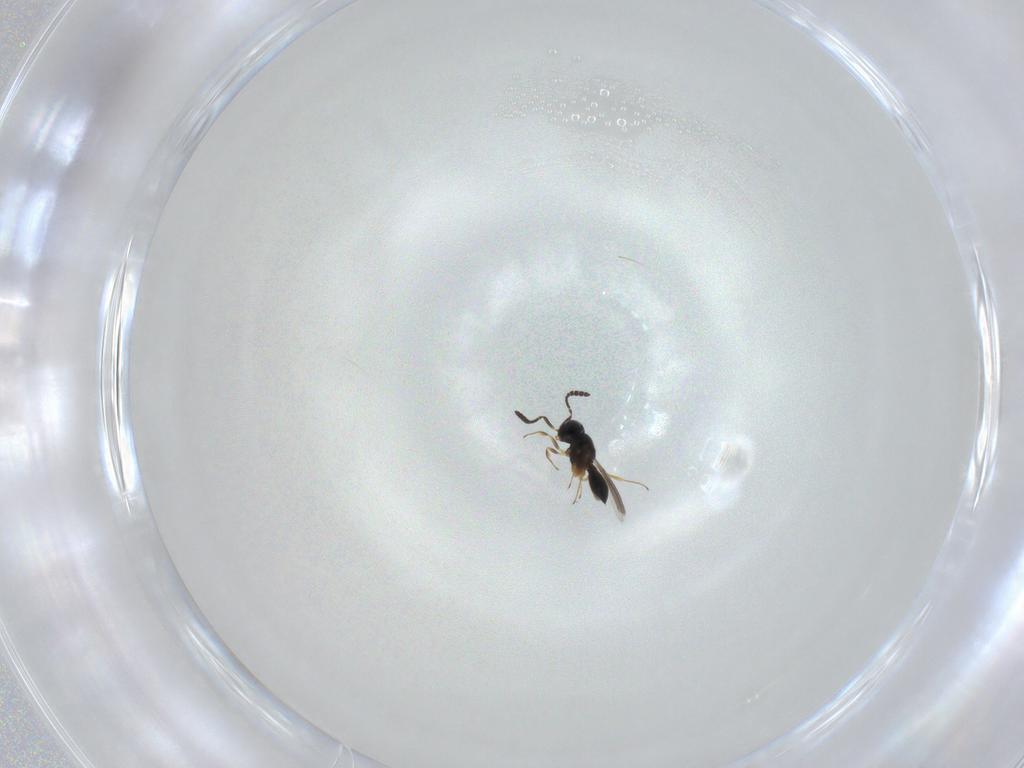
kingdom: Animalia
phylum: Arthropoda
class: Insecta
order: Hymenoptera
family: Scelionidae
